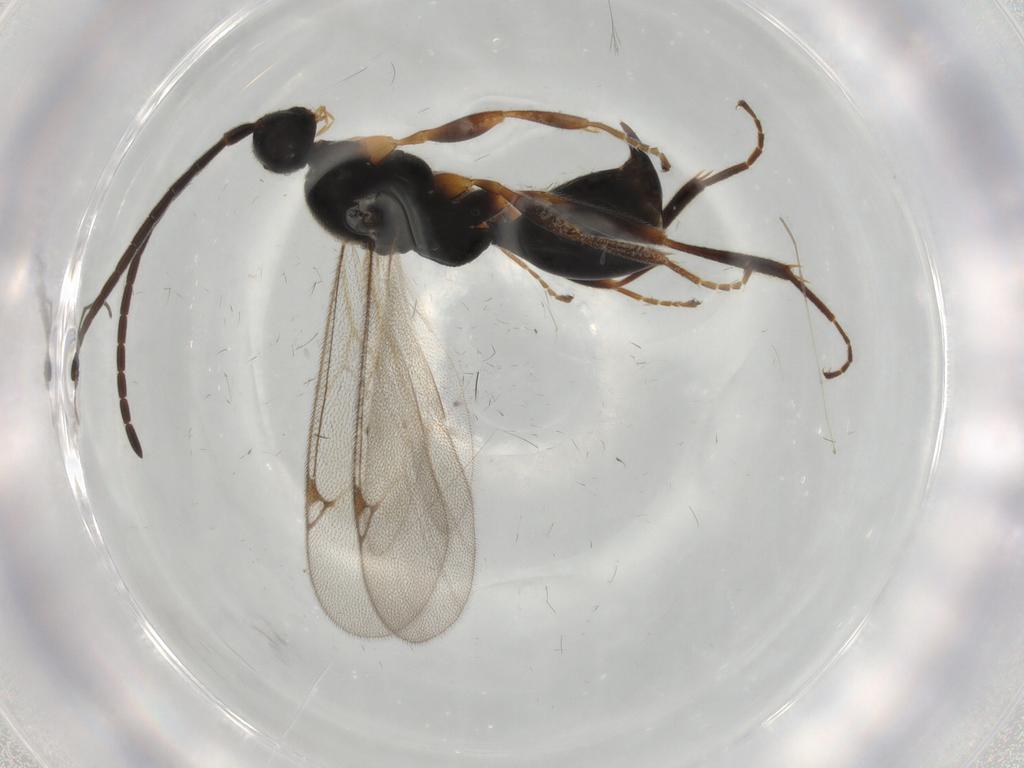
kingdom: Animalia
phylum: Arthropoda
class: Insecta
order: Hymenoptera
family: Proctotrupidae
